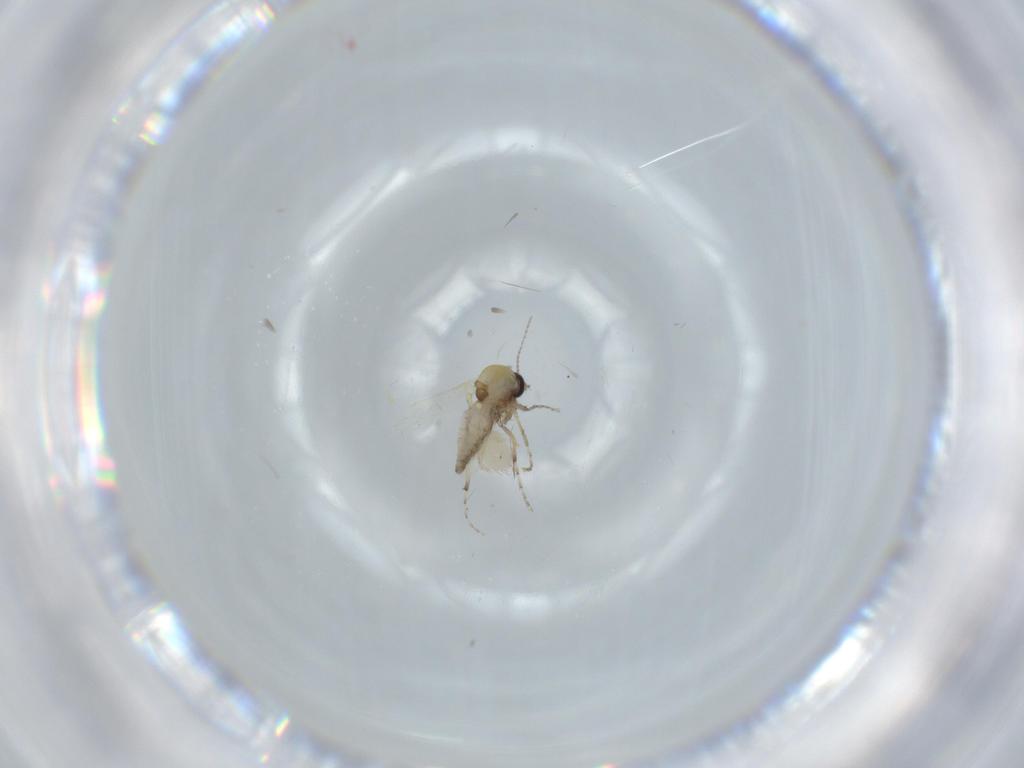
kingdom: Animalia
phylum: Arthropoda
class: Insecta
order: Diptera
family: Ceratopogonidae
